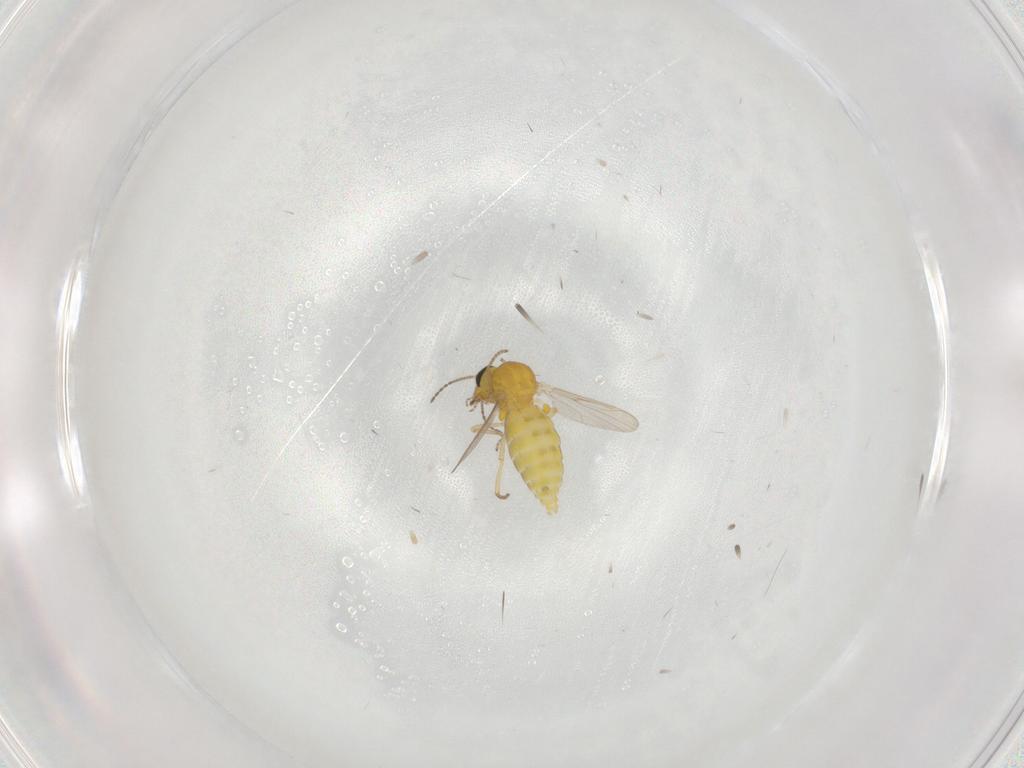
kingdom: Animalia
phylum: Arthropoda
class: Insecta
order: Diptera
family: Ceratopogonidae
